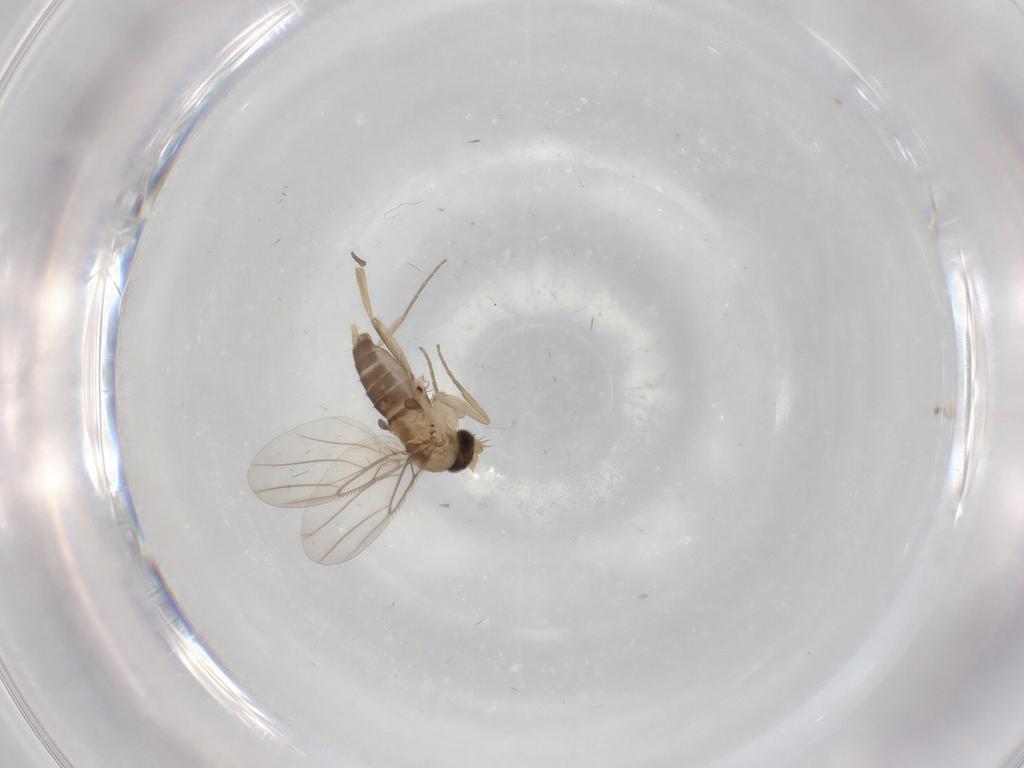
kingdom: Animalia
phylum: Arthropoda
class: Insecta
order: Diptera
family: Phoridae
